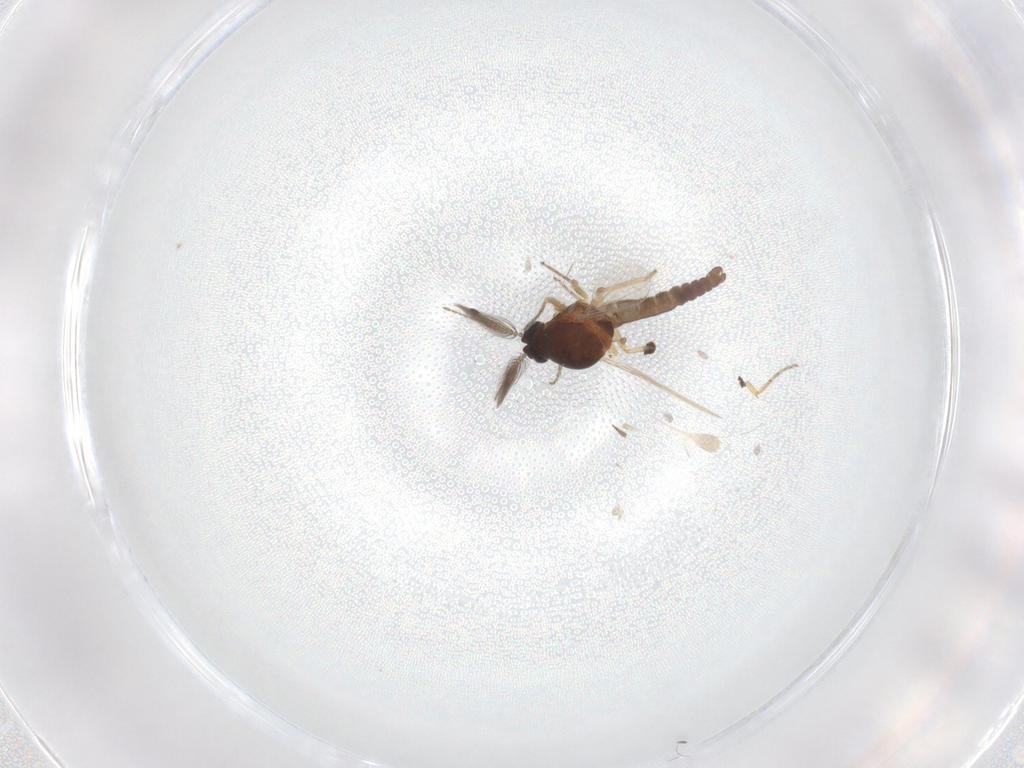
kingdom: Animalia
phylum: Arthropoda
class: Insecta
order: Diptera
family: Ceratopogonidae
